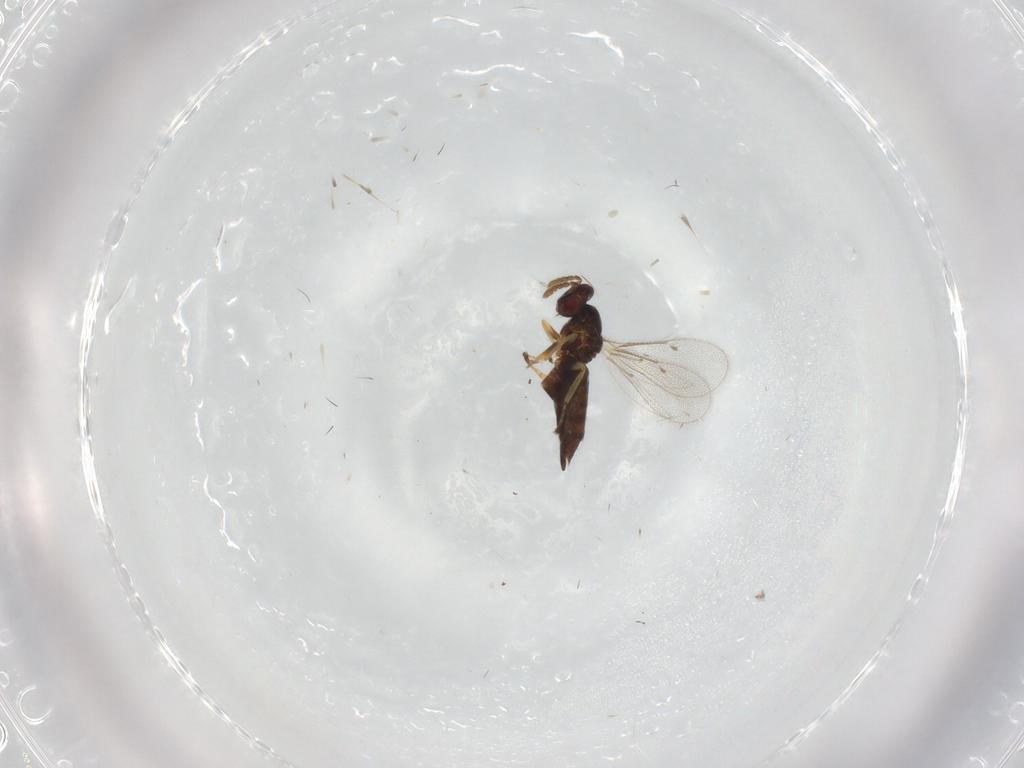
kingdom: Animalia
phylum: Arthropoda
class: Insecta
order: Hymenoptera
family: Eulophidae
